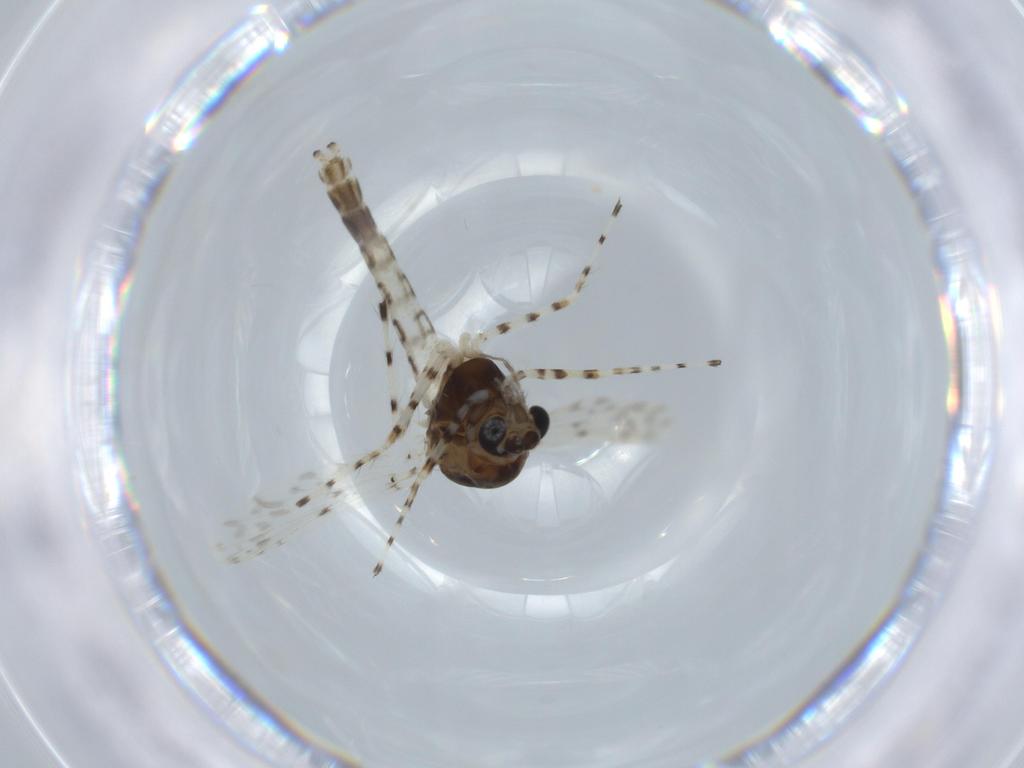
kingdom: Animalia
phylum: Arthropoda
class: Insecta
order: Diptera
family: Chironomidae
